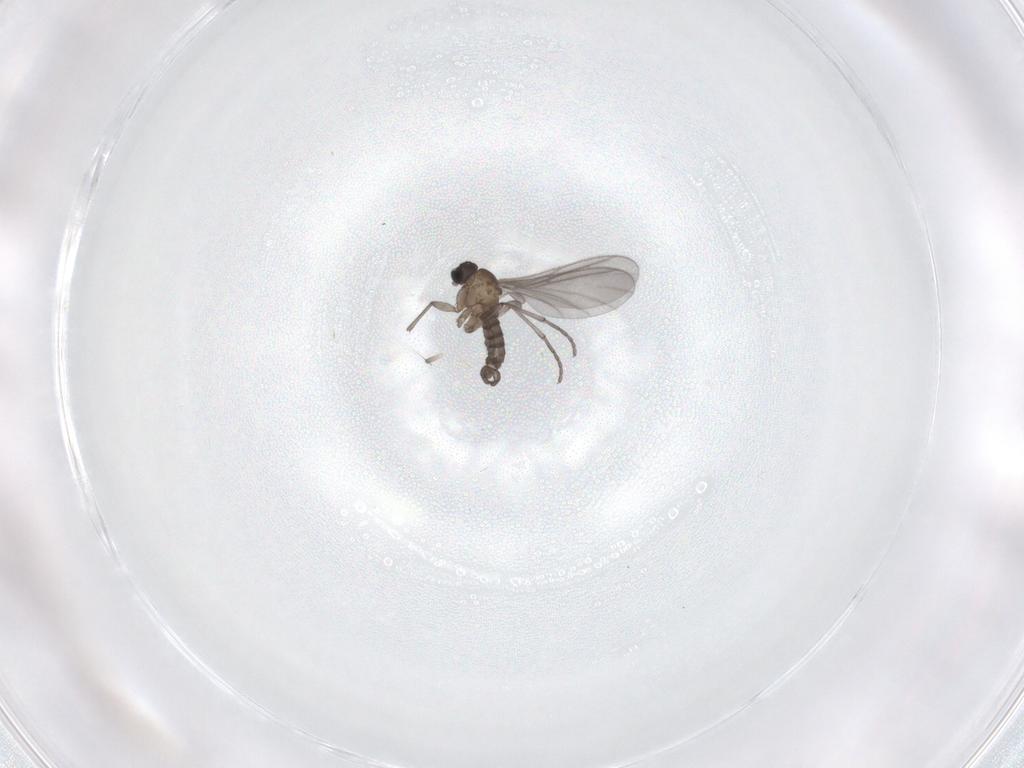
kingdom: Animalia
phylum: Arthropoda
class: Insecta
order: Diptera
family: Sciaridae
